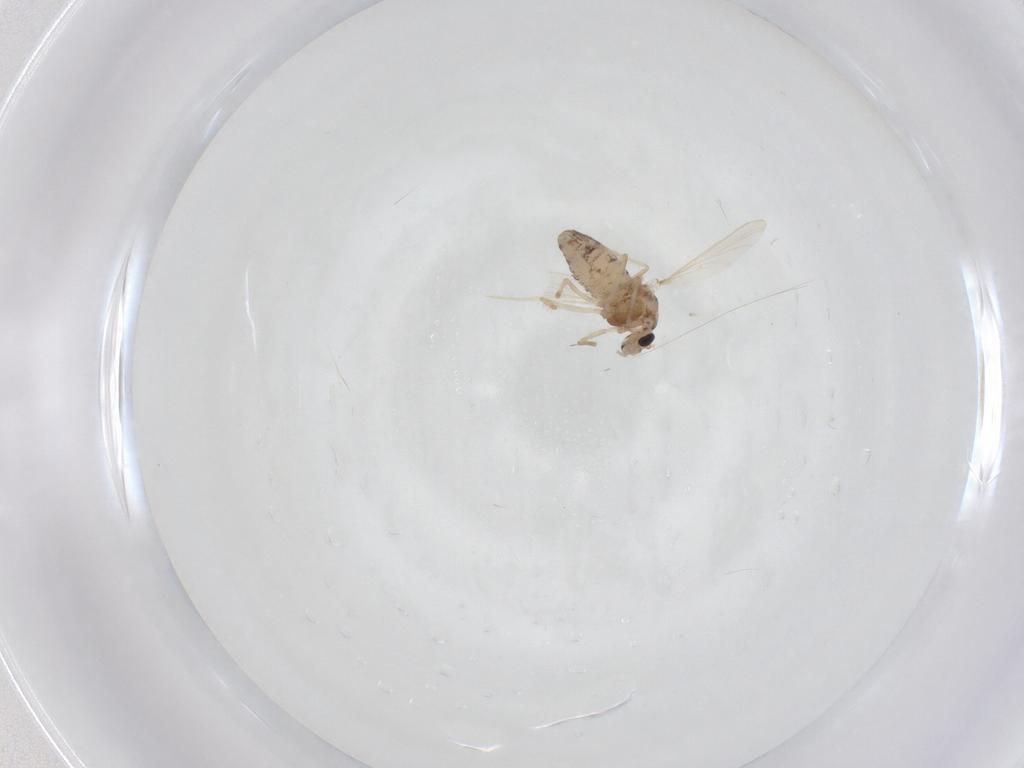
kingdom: Animalia
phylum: Arthropoda
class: Insecta
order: Diptera
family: Chironomidae
